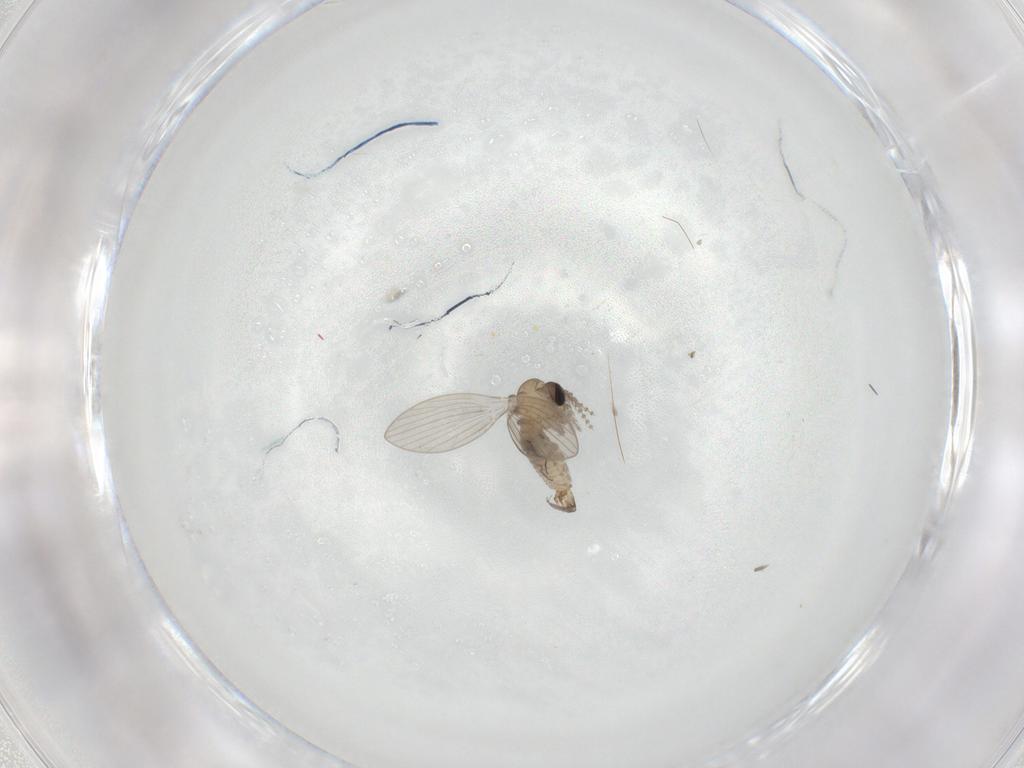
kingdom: Animalia
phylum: Arthropoda
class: Insecta
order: Diptera
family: Psychodidae
